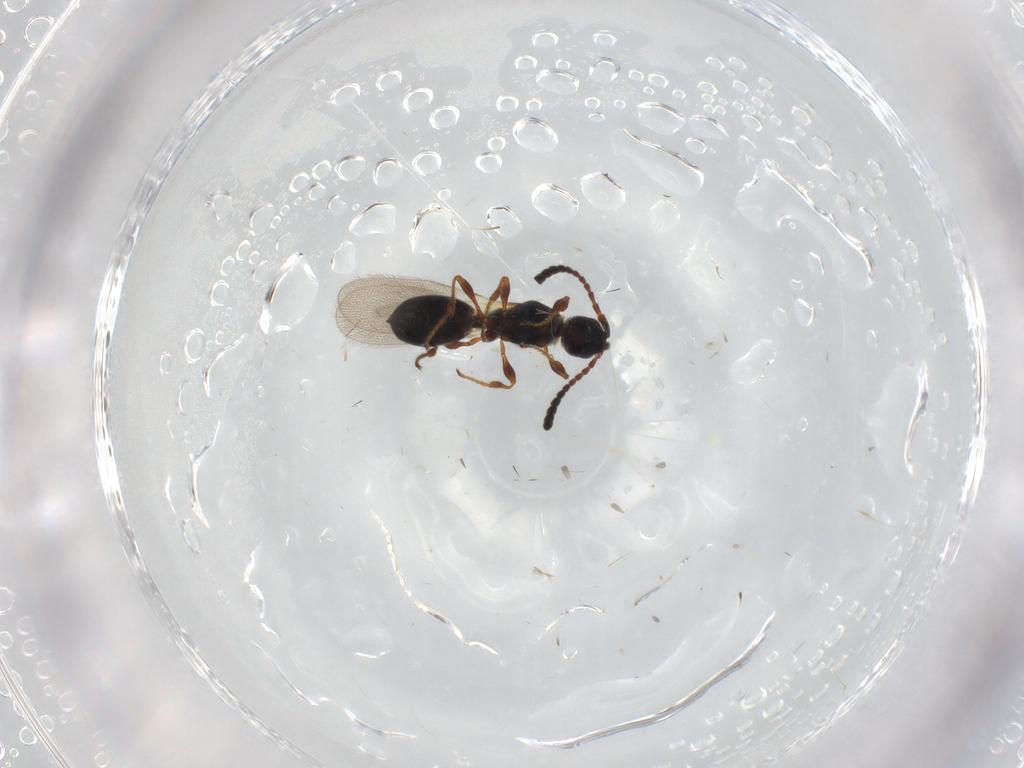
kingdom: Animalia
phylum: Arthropoda
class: Insecta
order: Hymenoptera
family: Diapriidae
